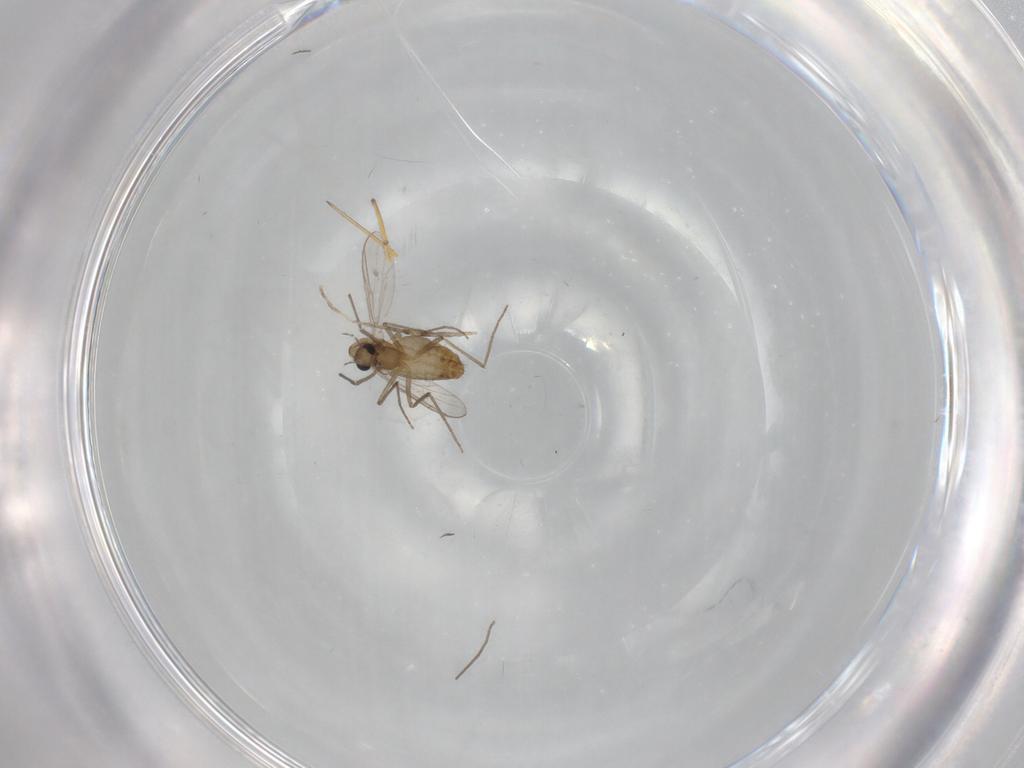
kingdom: Animalia
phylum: Arthropoda
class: Insecta
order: Diptera
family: Chironomidae
